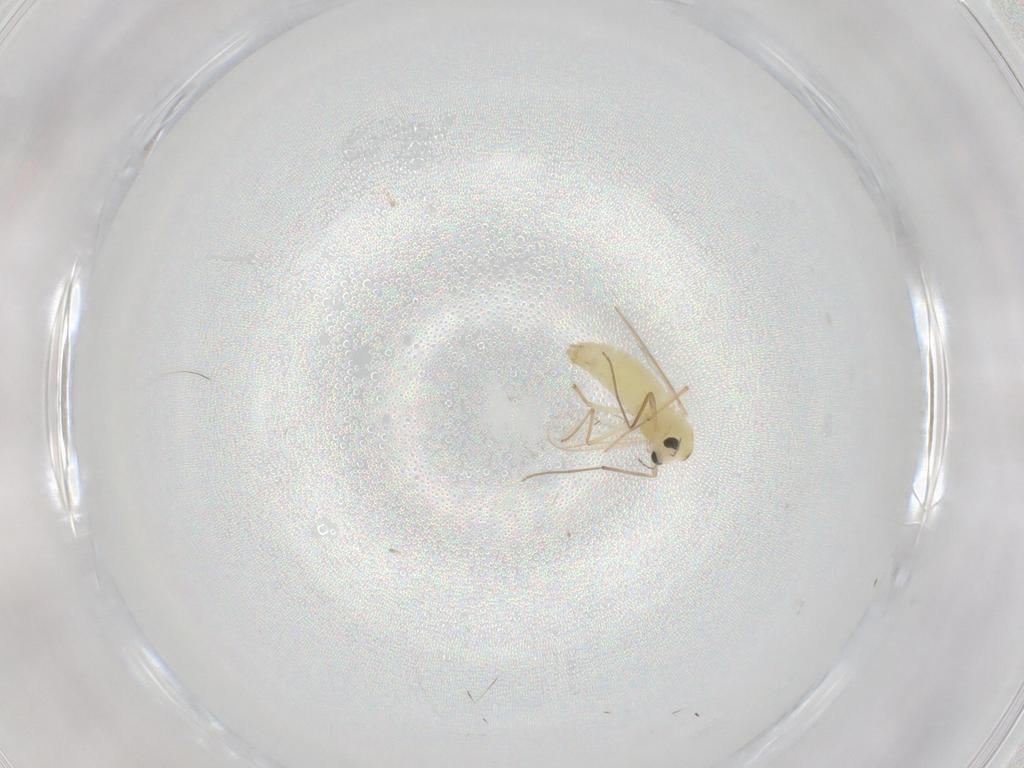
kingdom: Animalia
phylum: Arthropoda
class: Insecta
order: Diptera
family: Chironomidae
